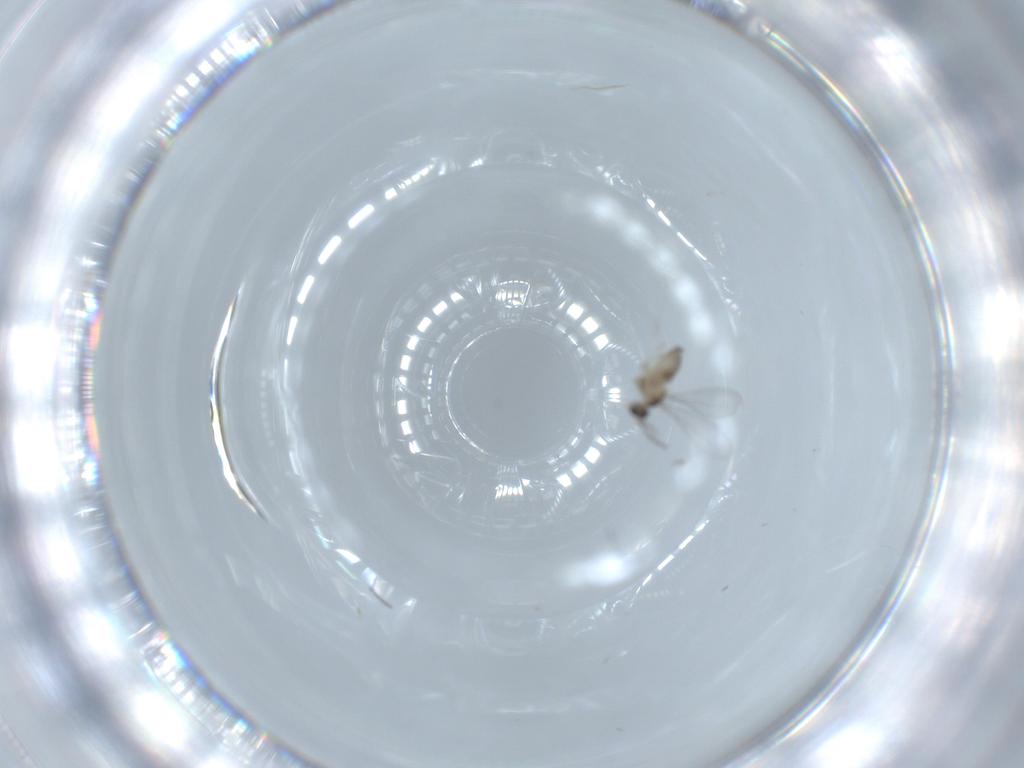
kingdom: Animalia
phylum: Arthropoda
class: Insecta
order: Diptera
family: Cecidomyiidae
